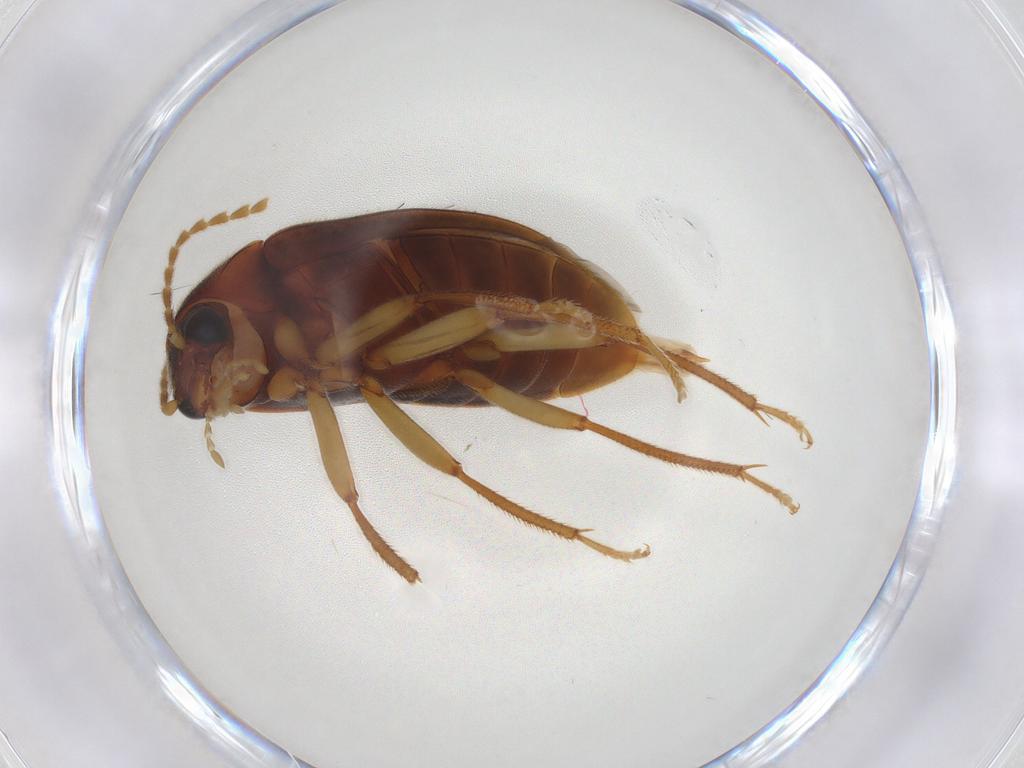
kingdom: Animalia
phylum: Arthropoda
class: Insecta
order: Coleoptera
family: Ptilodactylidae
